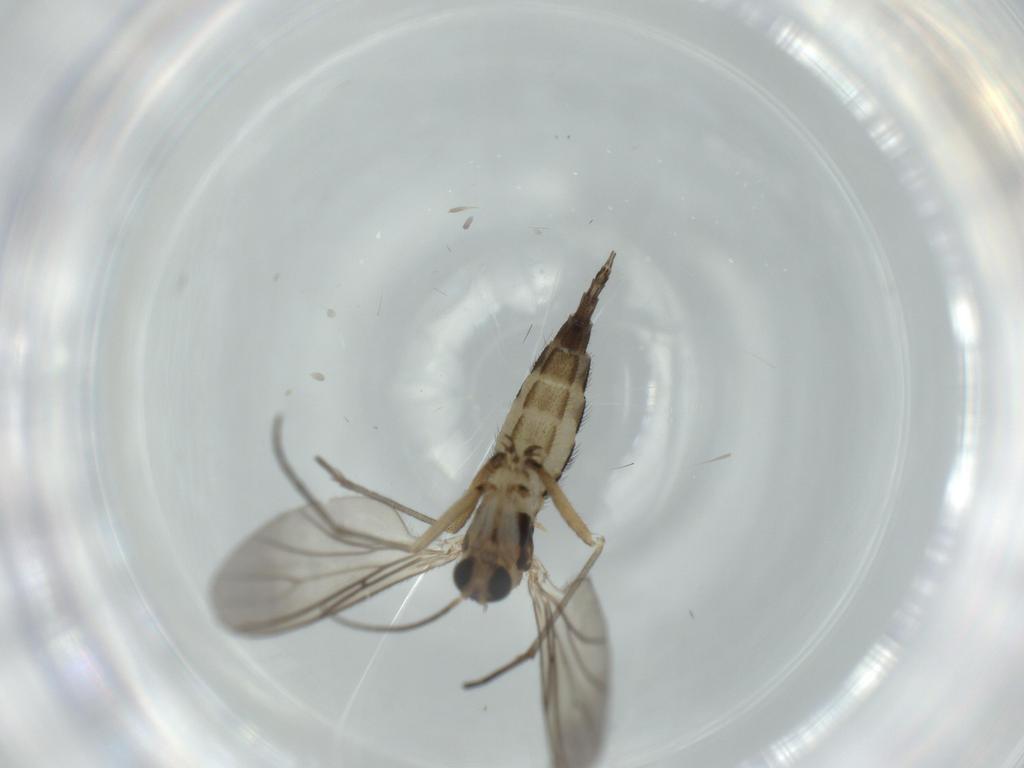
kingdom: Animalia
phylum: Arthropoda
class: Insecta
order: Diptera
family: Sciaridae
